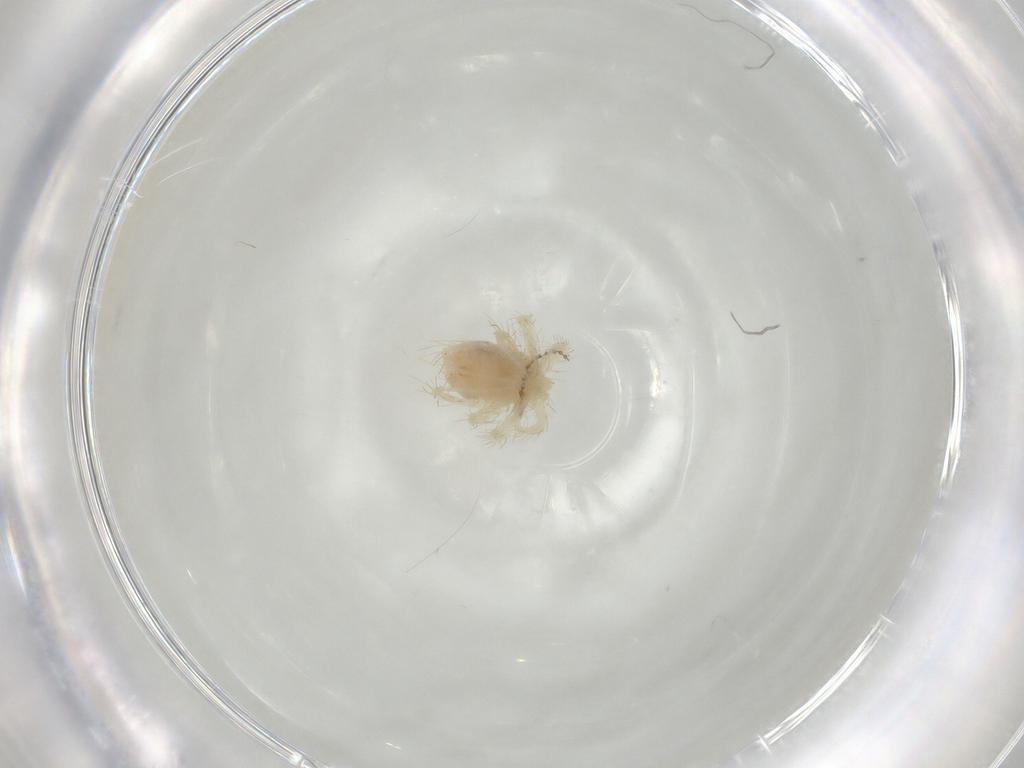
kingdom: Animalia
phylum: Arthropoda
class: Arachnida
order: Trombidiformes
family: Anystidae
